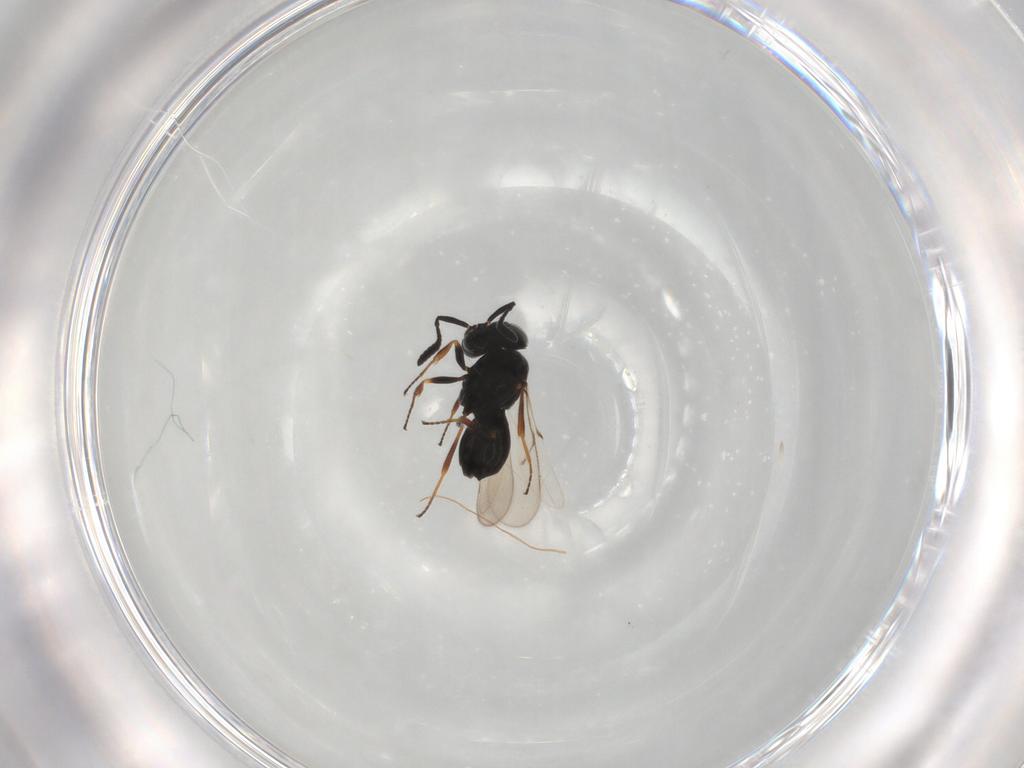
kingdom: Animalia
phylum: Arthropoda
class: Insecta
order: Hymenoptera
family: Scelionidae
